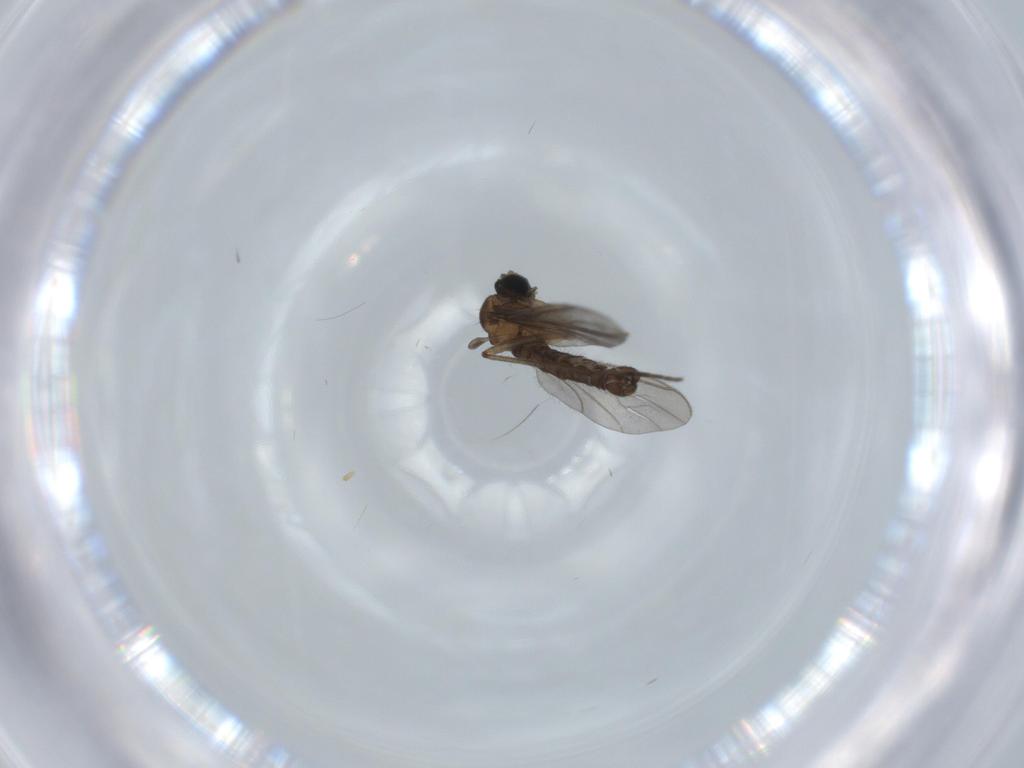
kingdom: Animalia
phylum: Arthropoda
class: Insecta
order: Diptera
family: Sciaridae
